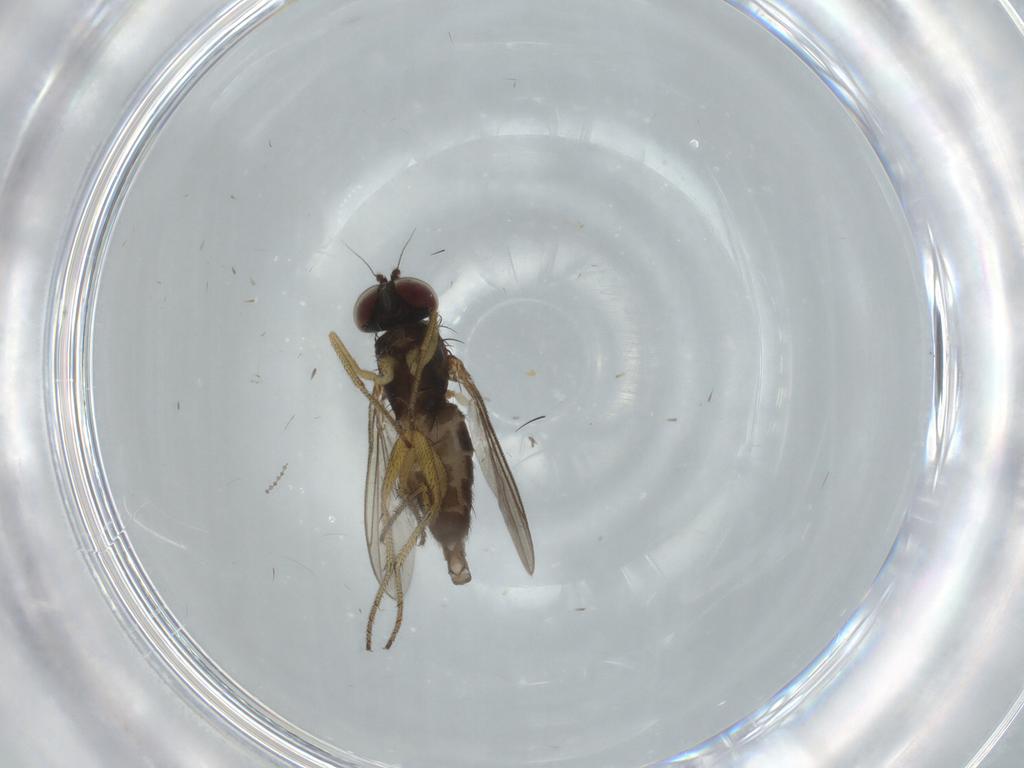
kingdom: Animalia
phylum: Arthropoda
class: Insecta
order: Diptera
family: Dolichopodidae
